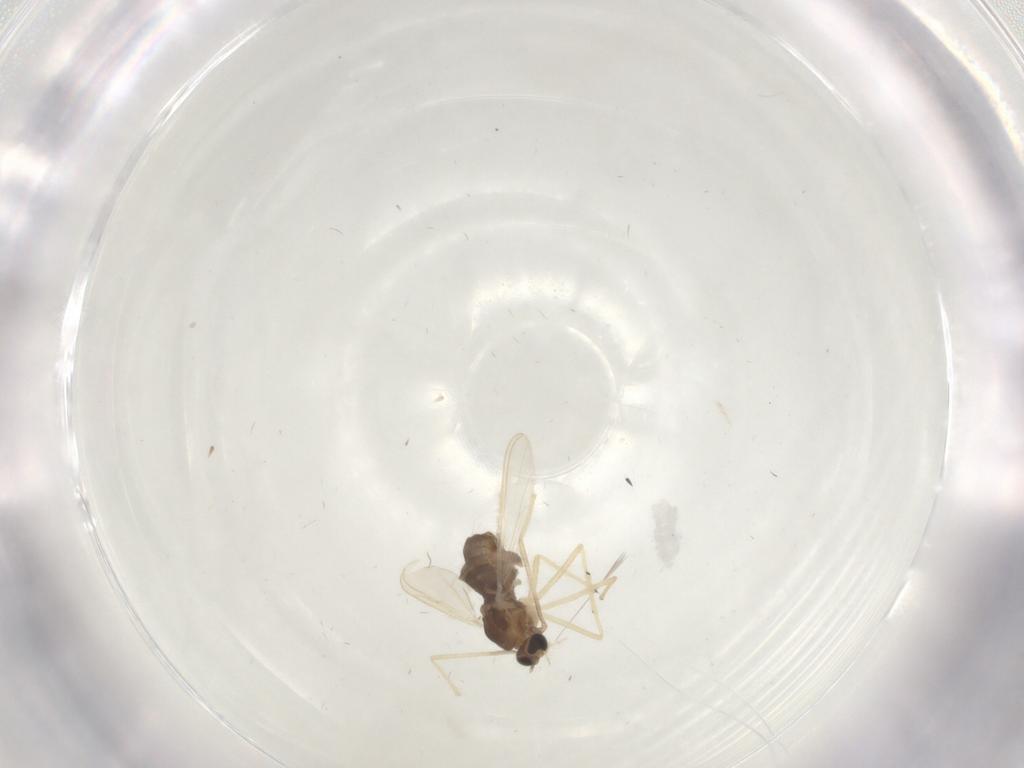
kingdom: Animalia
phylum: Arthropoda
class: Insecta
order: Diptera
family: Chironomidae
